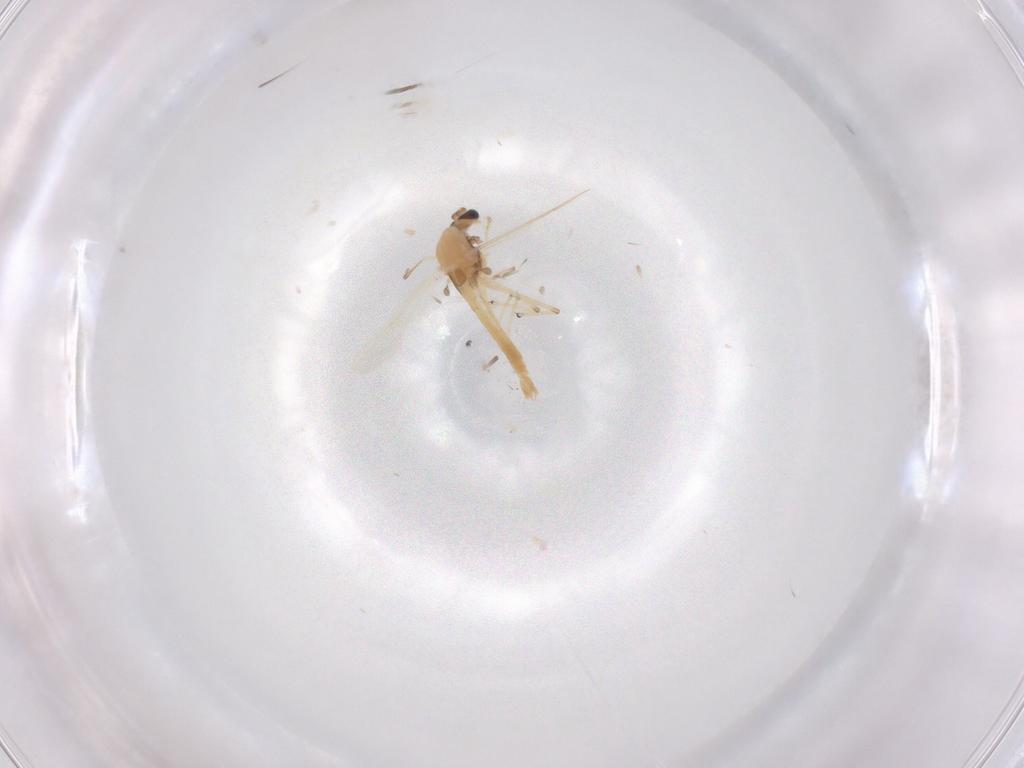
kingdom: Animalia
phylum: Arthropoda
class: Insecta
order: Diptera
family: Chironomidae
